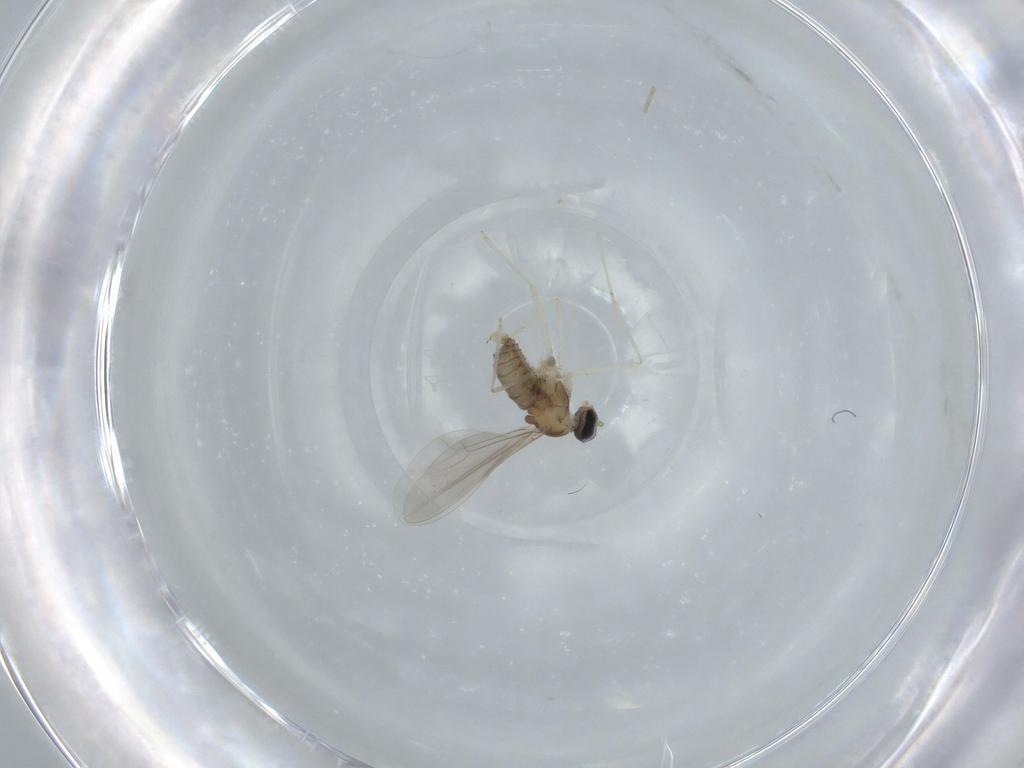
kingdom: Animalia
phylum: Arthropoda
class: Insecta
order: Diptera
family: Cecidomyiidae
